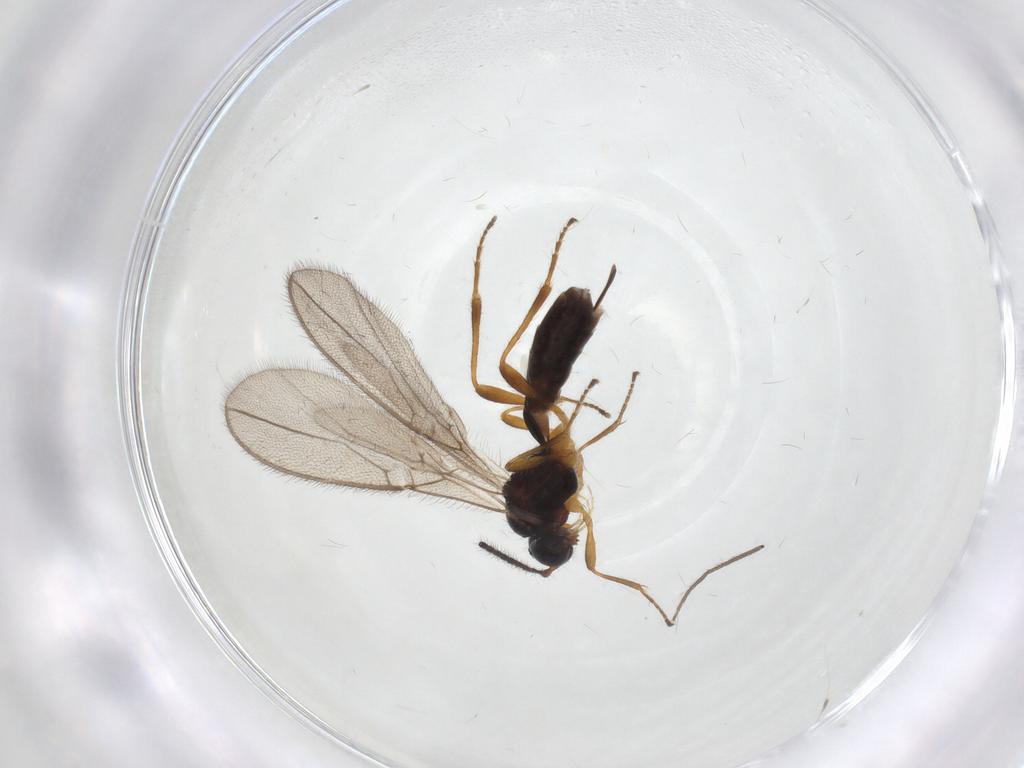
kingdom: Animalia
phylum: Arthropoda
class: Insecta
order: Hymenoptera
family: Braconidae
